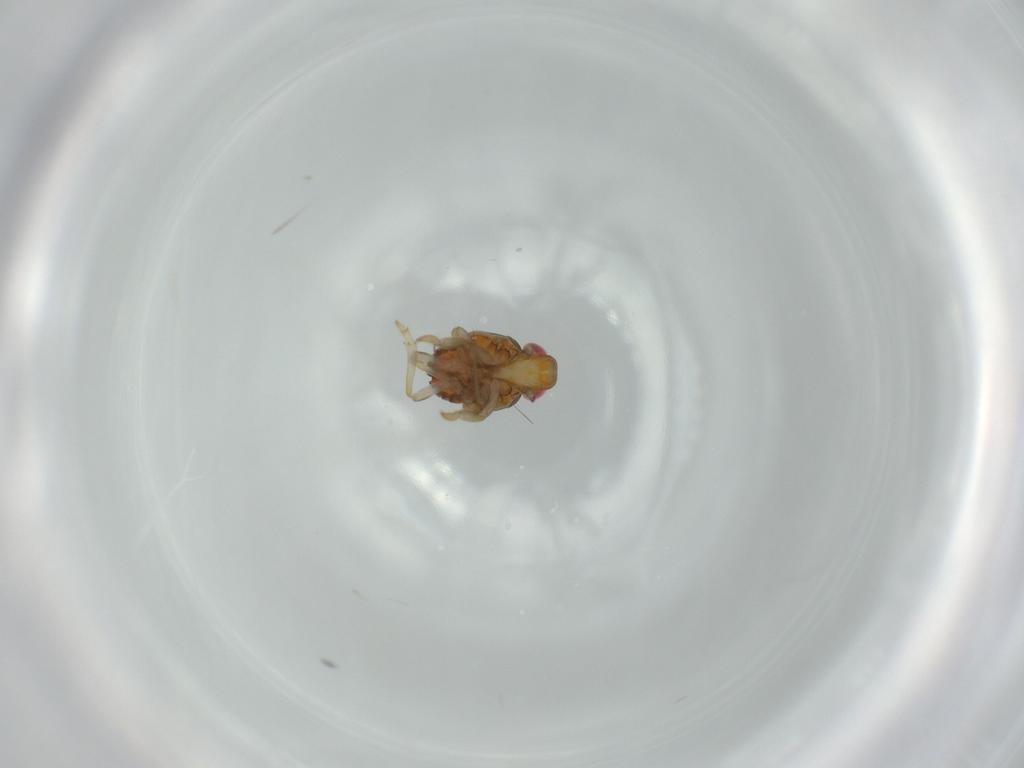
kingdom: Animalia
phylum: Arthropoda
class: Insecta
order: Hemiptera
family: Issidae
